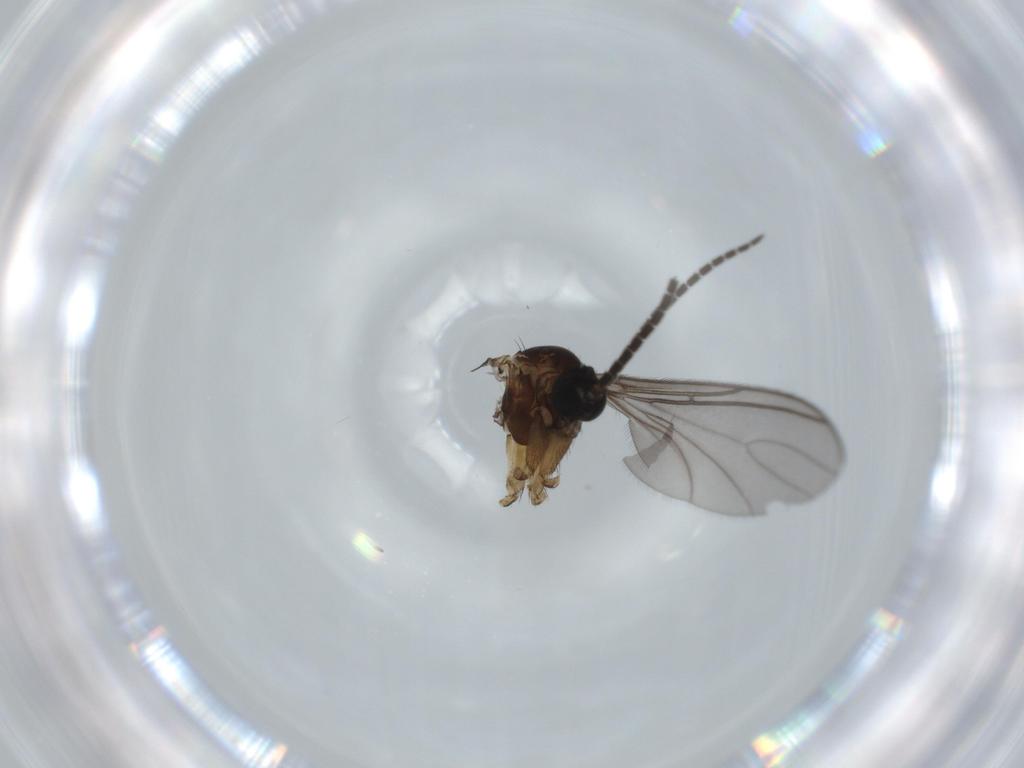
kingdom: Animalia
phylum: Arthropoda
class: Insecta
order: Diptera
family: Sciaridae
